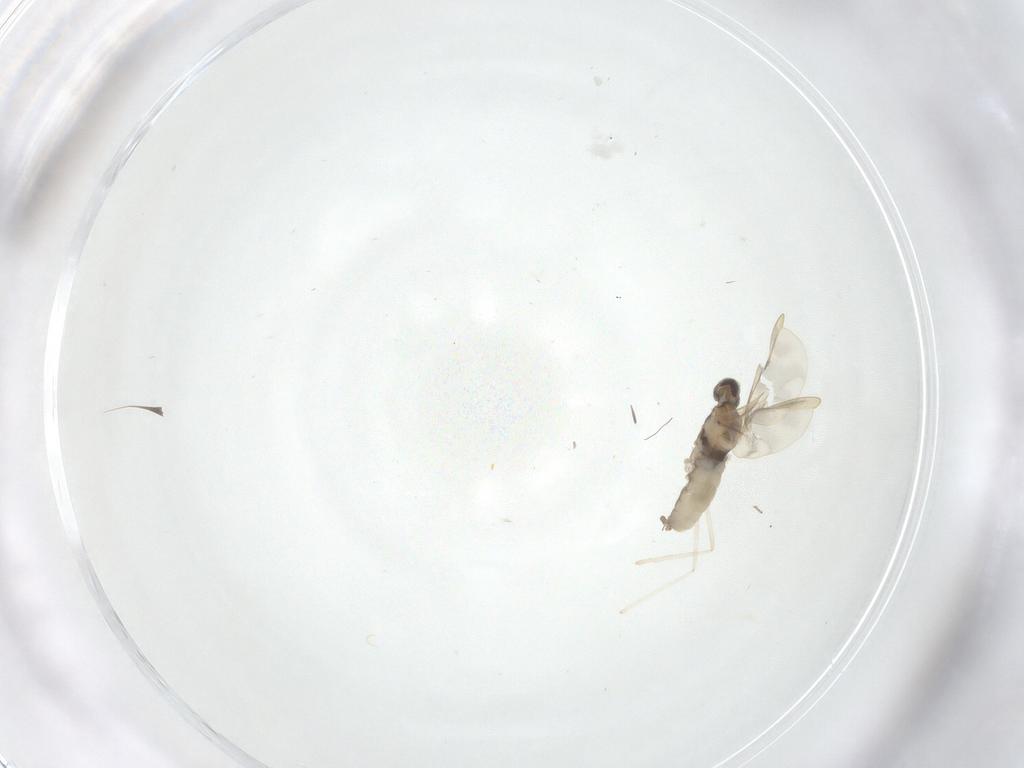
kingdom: Animalia
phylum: Arthropoda
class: Insecta
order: Diptera
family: Cecidomyiidae
